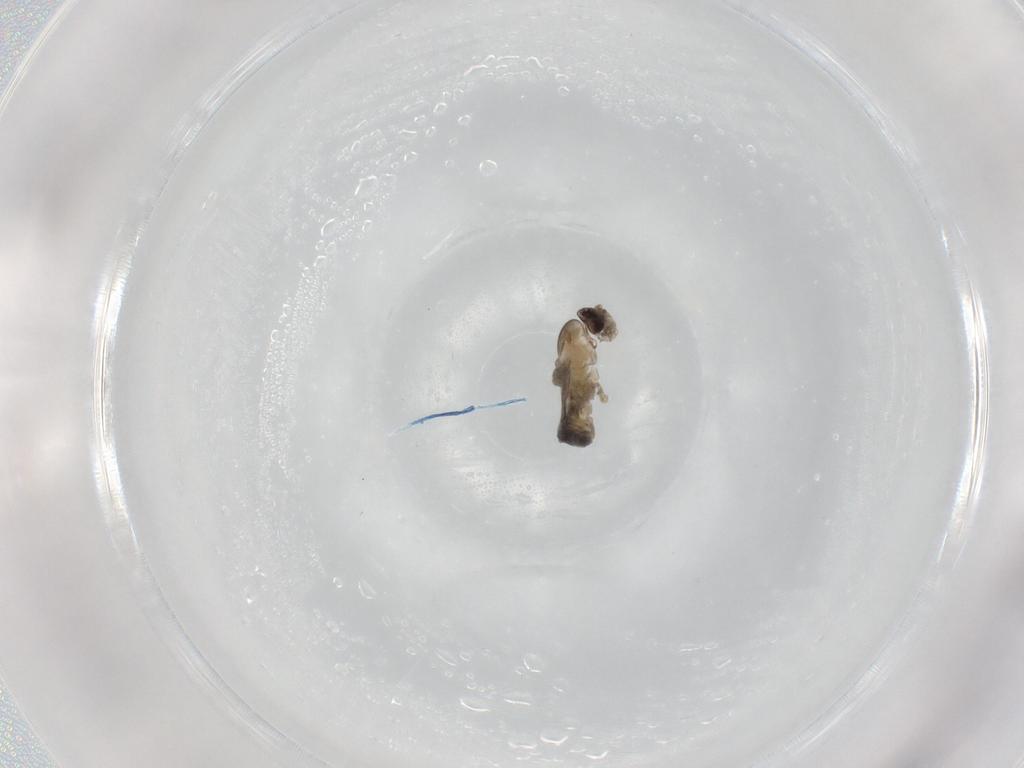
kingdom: Animalia
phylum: Arthropoda
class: Insecta
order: Diptera
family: Cecidomyiidae
